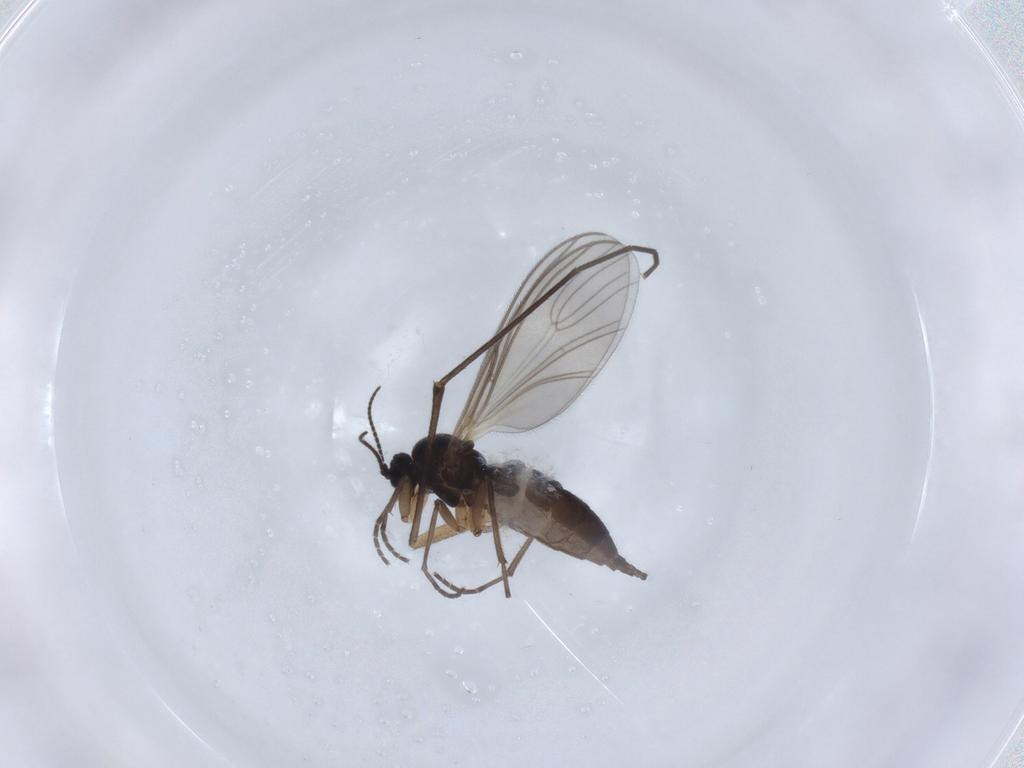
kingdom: Animalia
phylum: Arthropoda
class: Insecta
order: Diptera
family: Sciaridae
